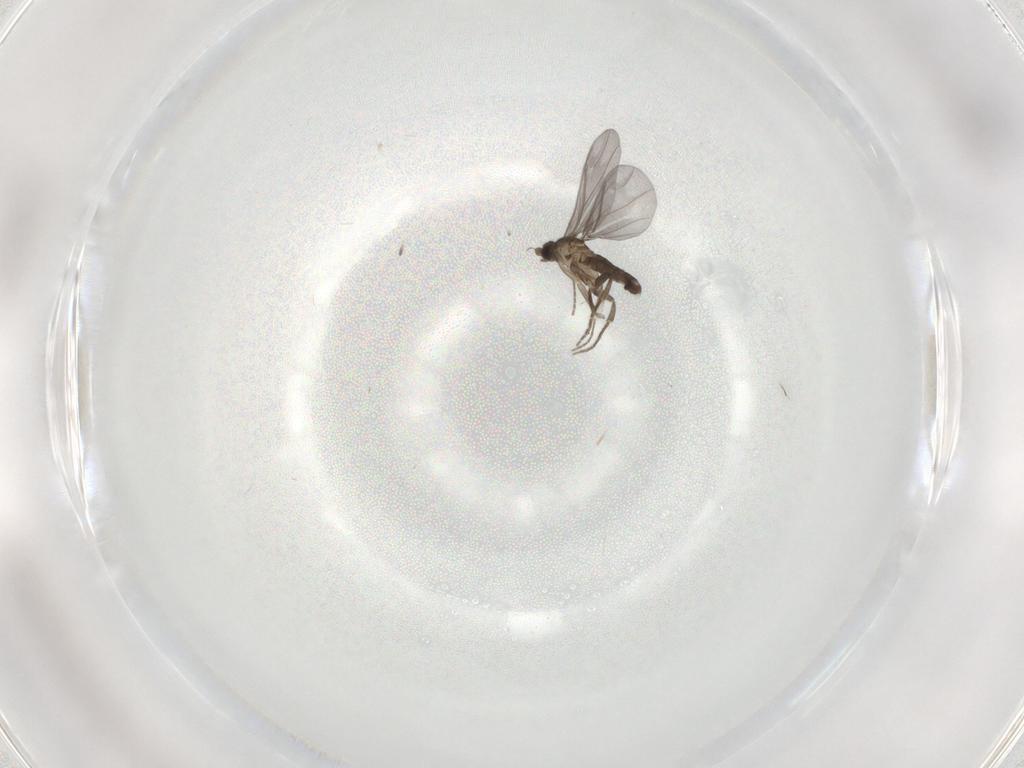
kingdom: Animalia
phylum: Arthropoda
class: Insecta
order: Diptera
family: Phoridae
